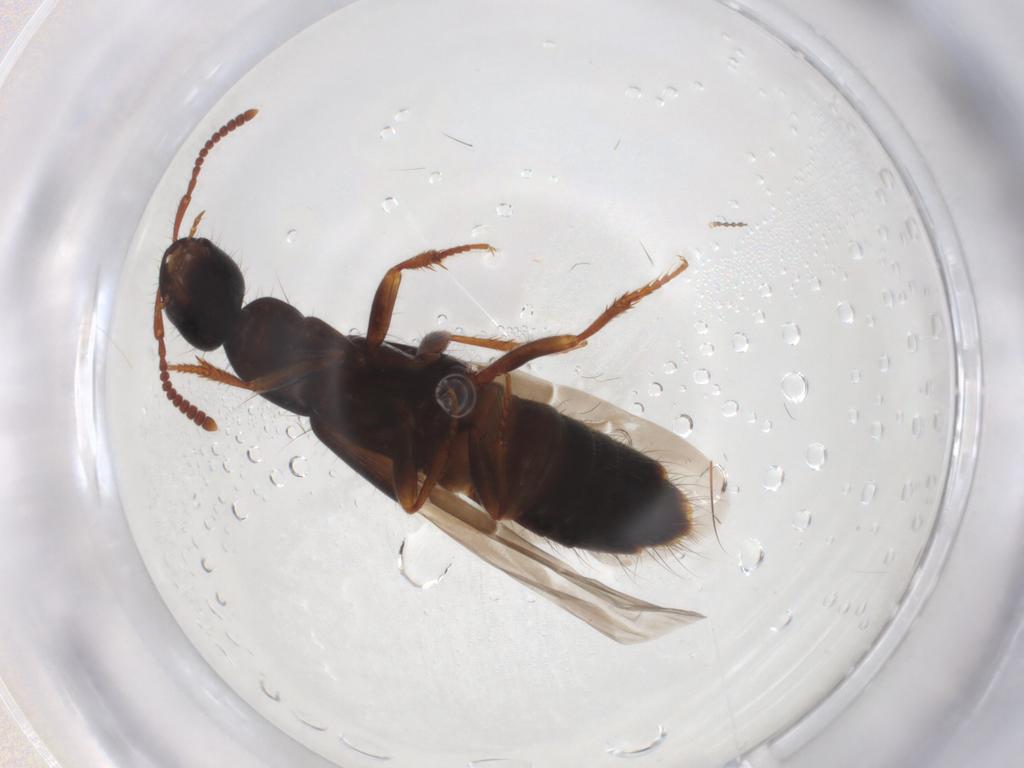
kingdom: Animalia
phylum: Arthropoda
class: Insecta
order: Coleoptera
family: Staphylinidae
